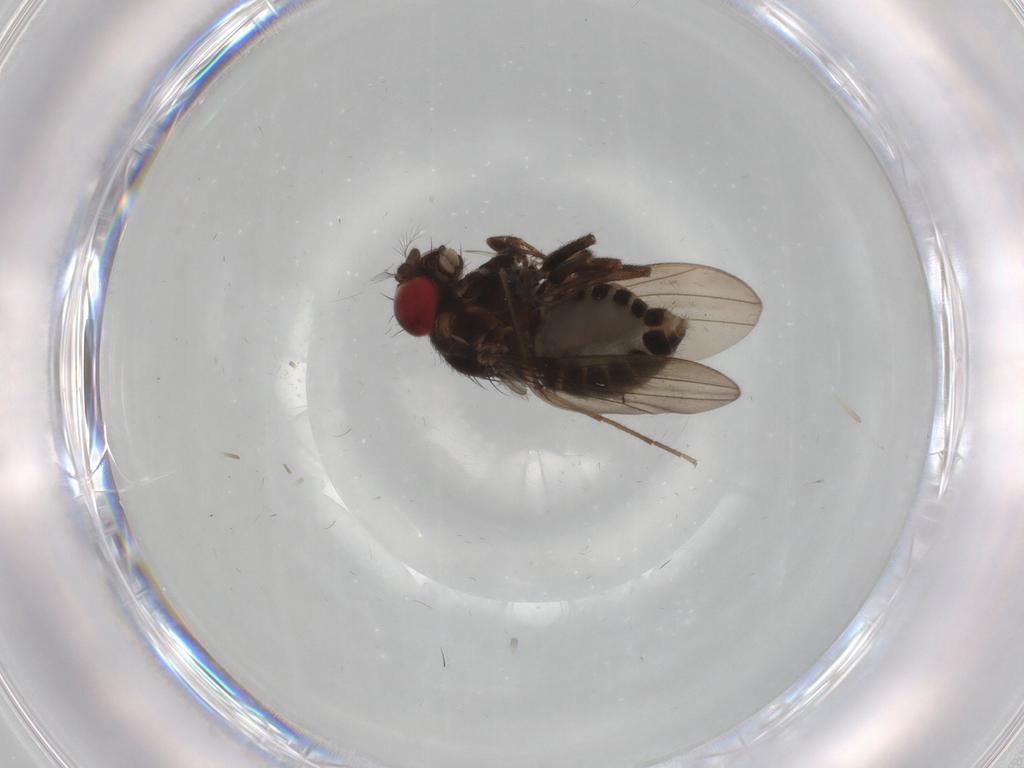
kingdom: Animalia
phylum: Arthropoda
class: Insecta
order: Diptera
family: Drosophilidae
